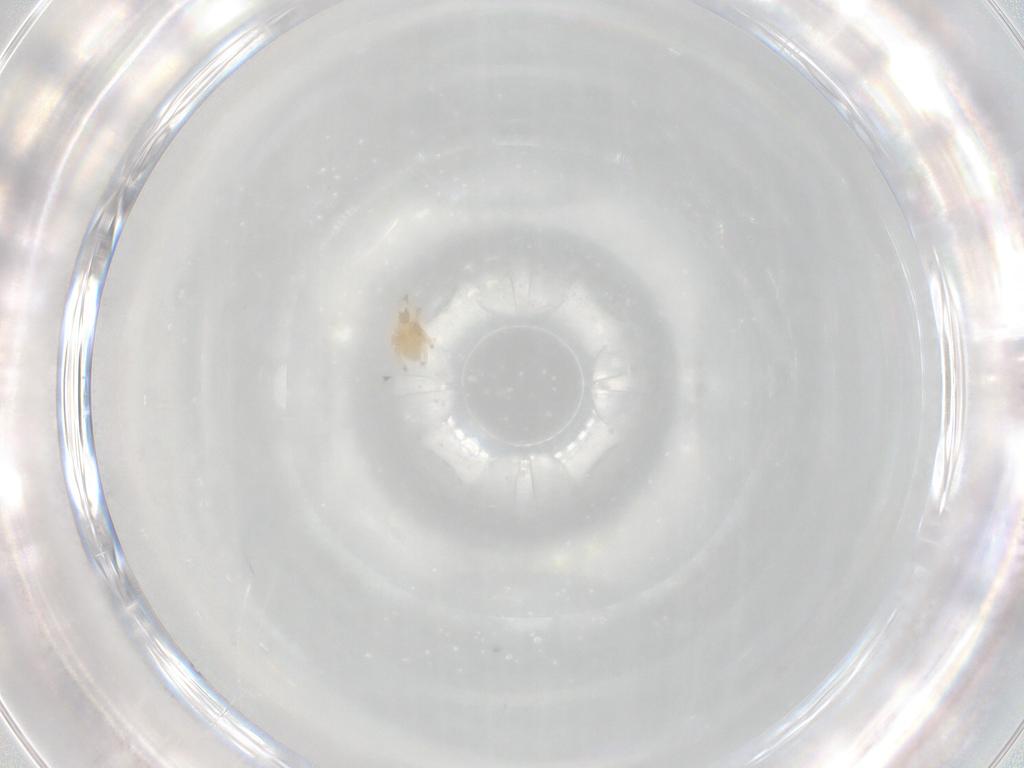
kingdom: Animalia
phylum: Arthropoda
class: Arachnida
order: Trombidiformes
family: Cunaxidae
